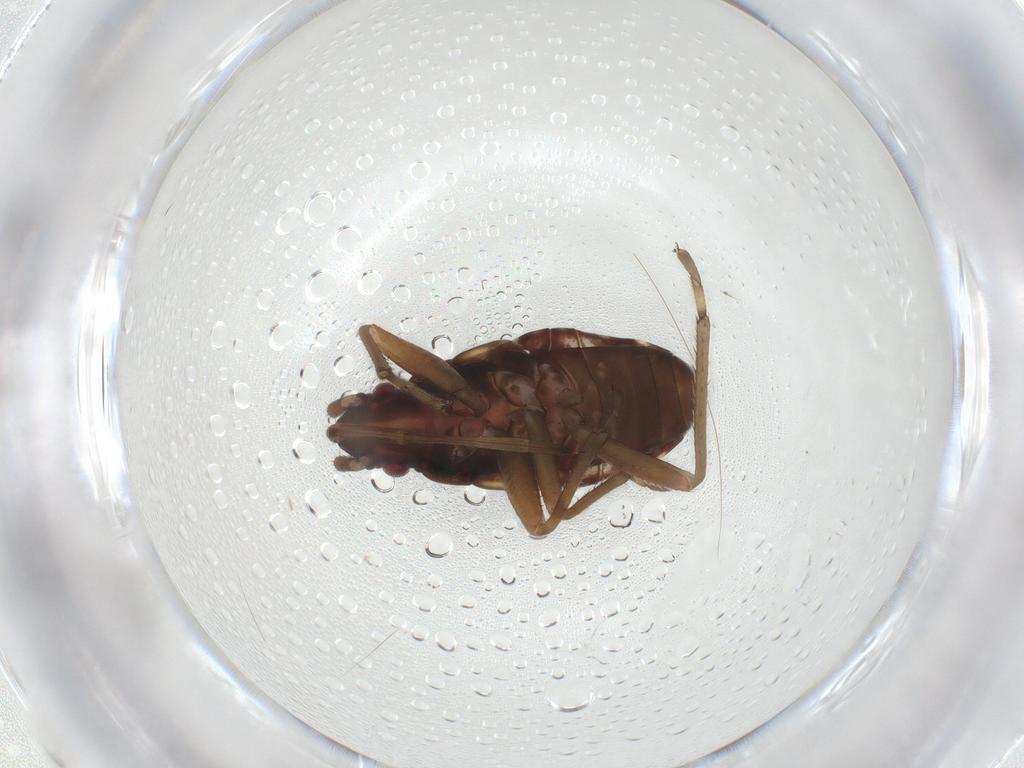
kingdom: Animalia
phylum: Arthropoda
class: Insecta
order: Hemiptera
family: Rhyparochromidae
